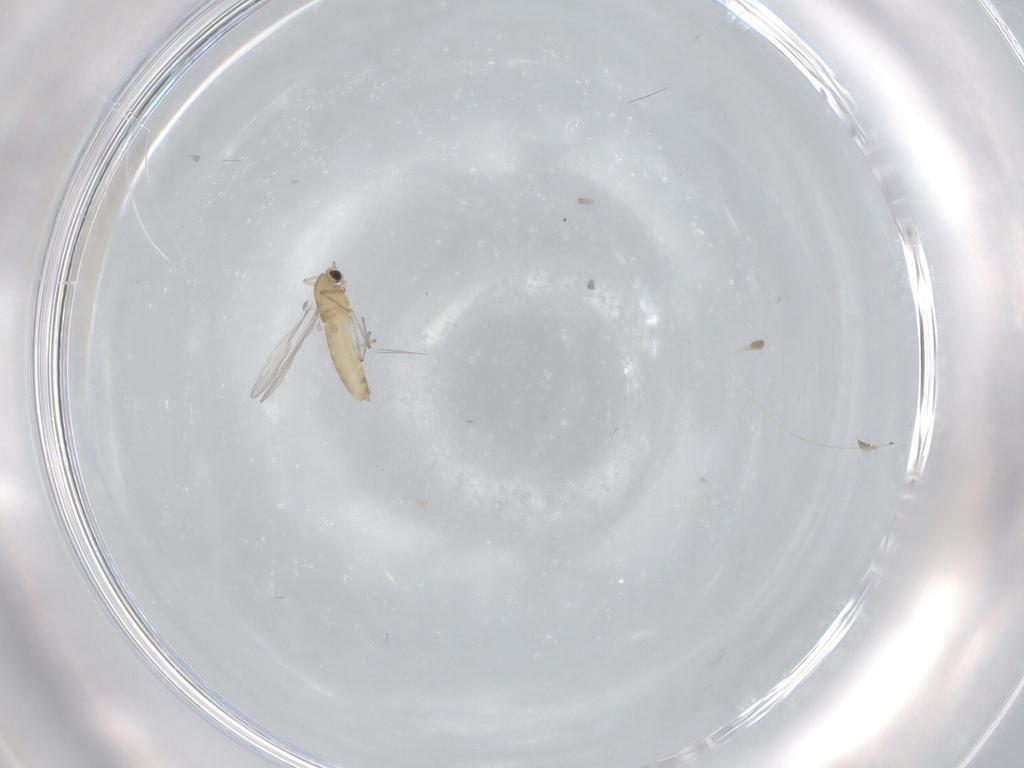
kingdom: Animalia
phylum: Arthropoda
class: Insecta
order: Diptera
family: Chironomidae
